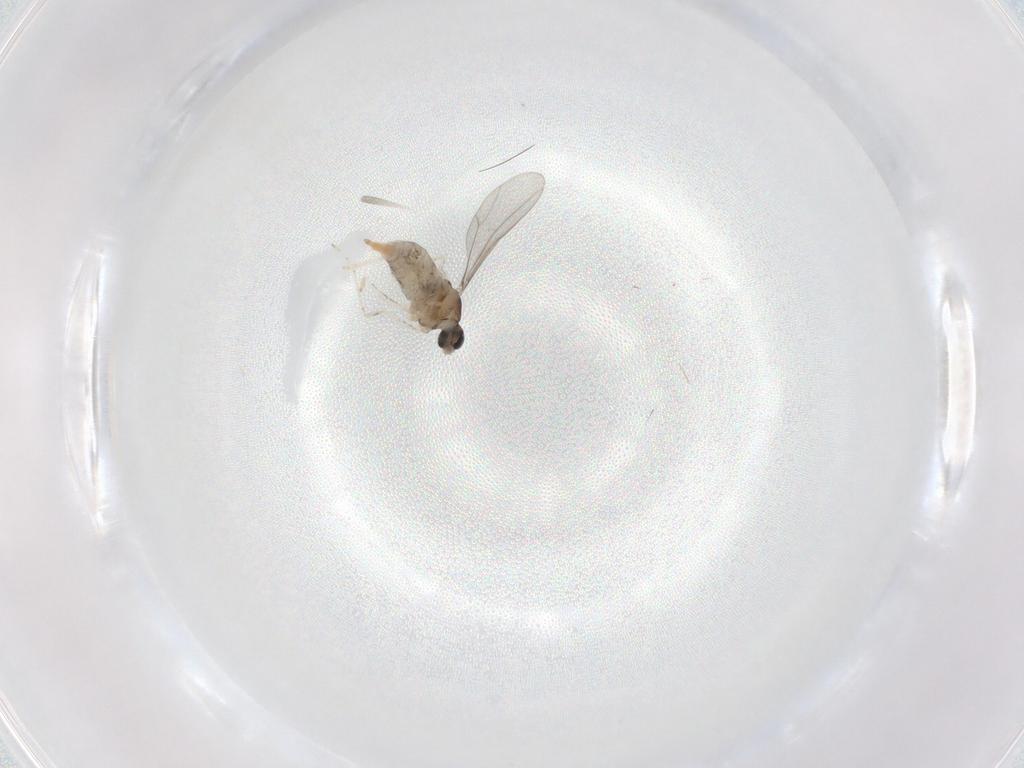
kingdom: Animalia
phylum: Arthropoda
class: Insecta
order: Diptera
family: Cecidomyiidae
